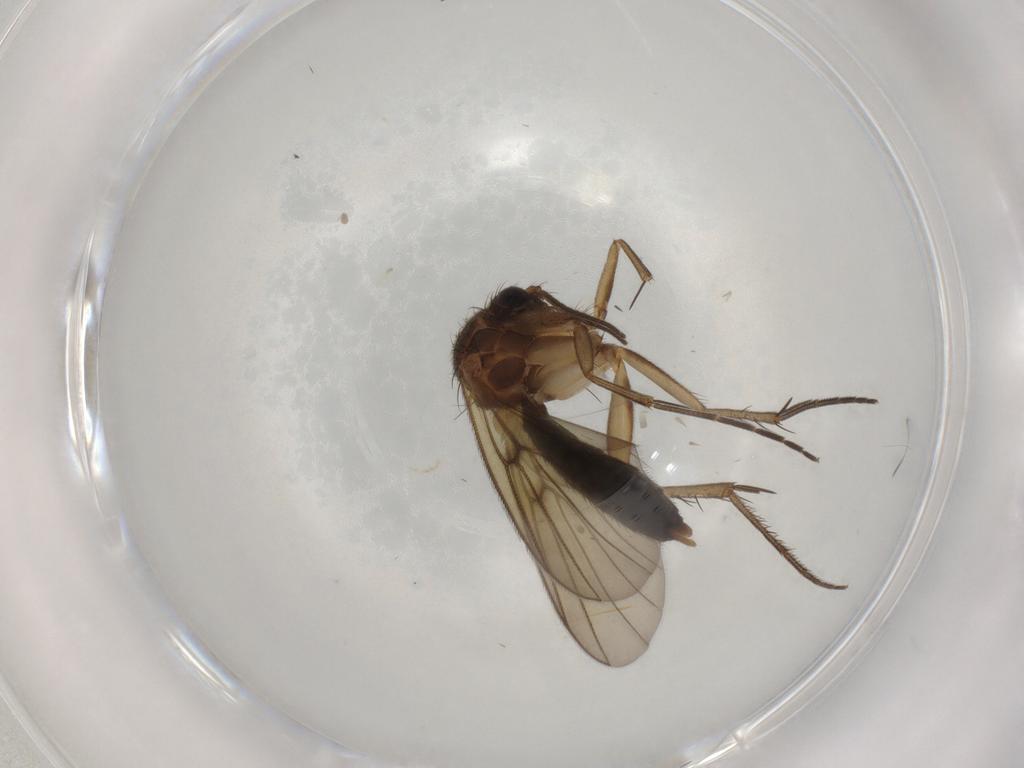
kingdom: Animalia
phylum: Arthropoda
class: Insecta
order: Diptera
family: Mycetophilidae
